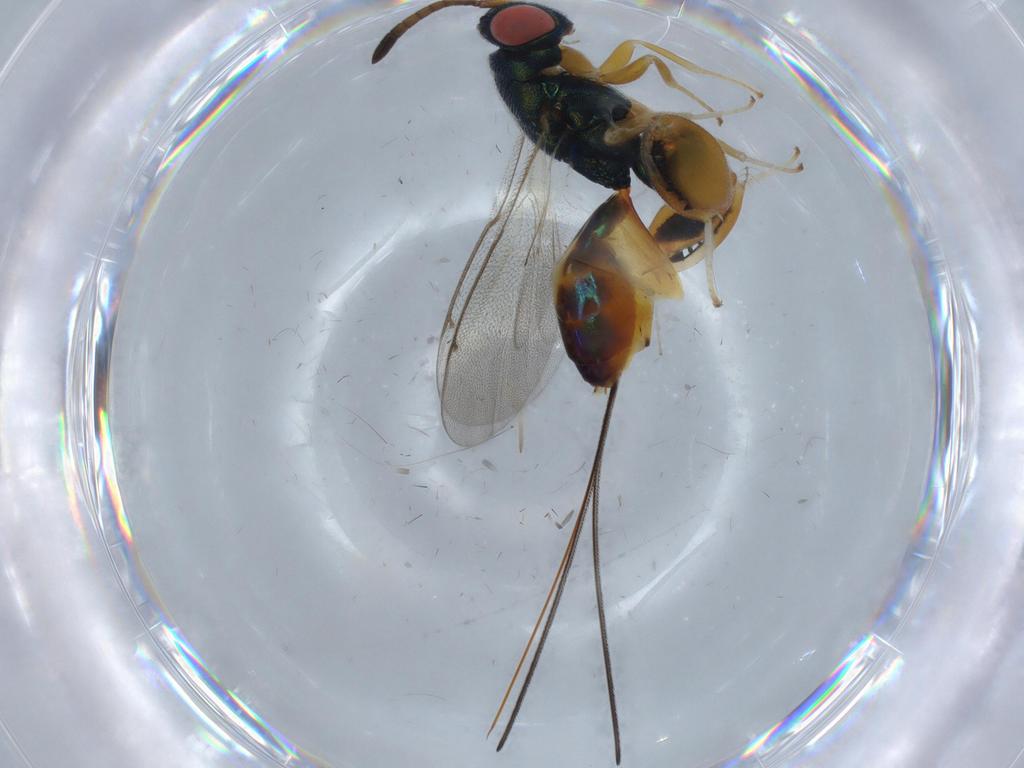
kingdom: Animalia
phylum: Arthropoda
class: Insecta
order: Hymenoptera
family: Torymidae
